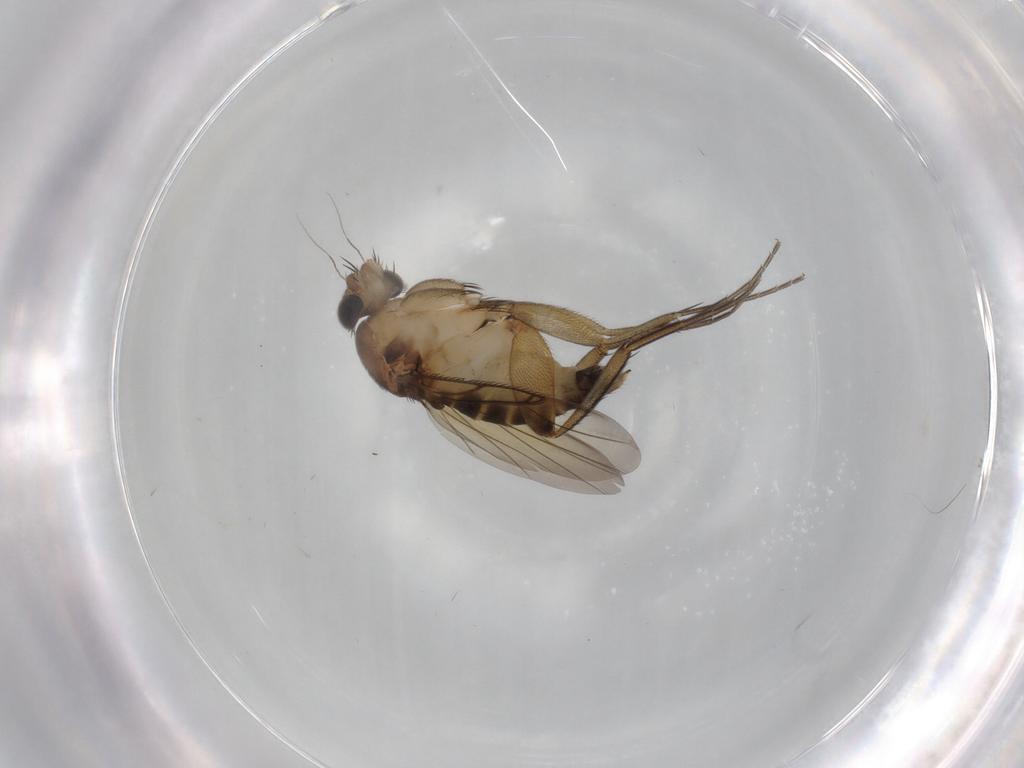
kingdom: Animalia
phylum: Arthropoda
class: Insecta
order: Diptera
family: Phoridae
